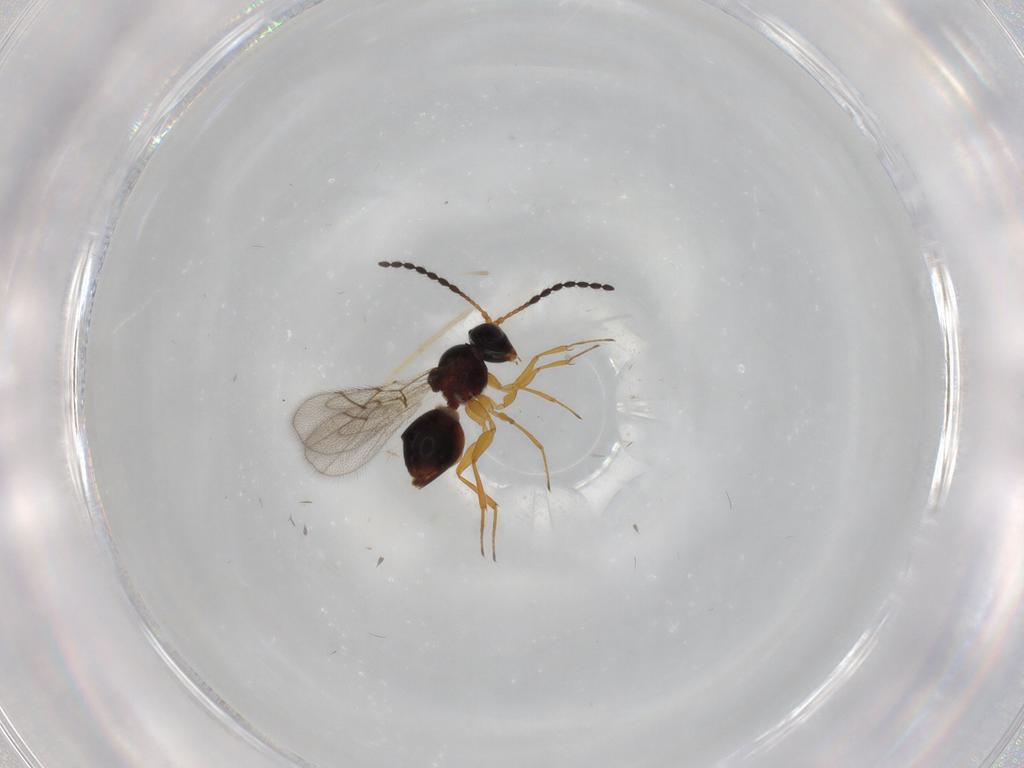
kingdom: Animalia
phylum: Arthropoda
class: Insecta
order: Hymenoptera
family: Figitidae
